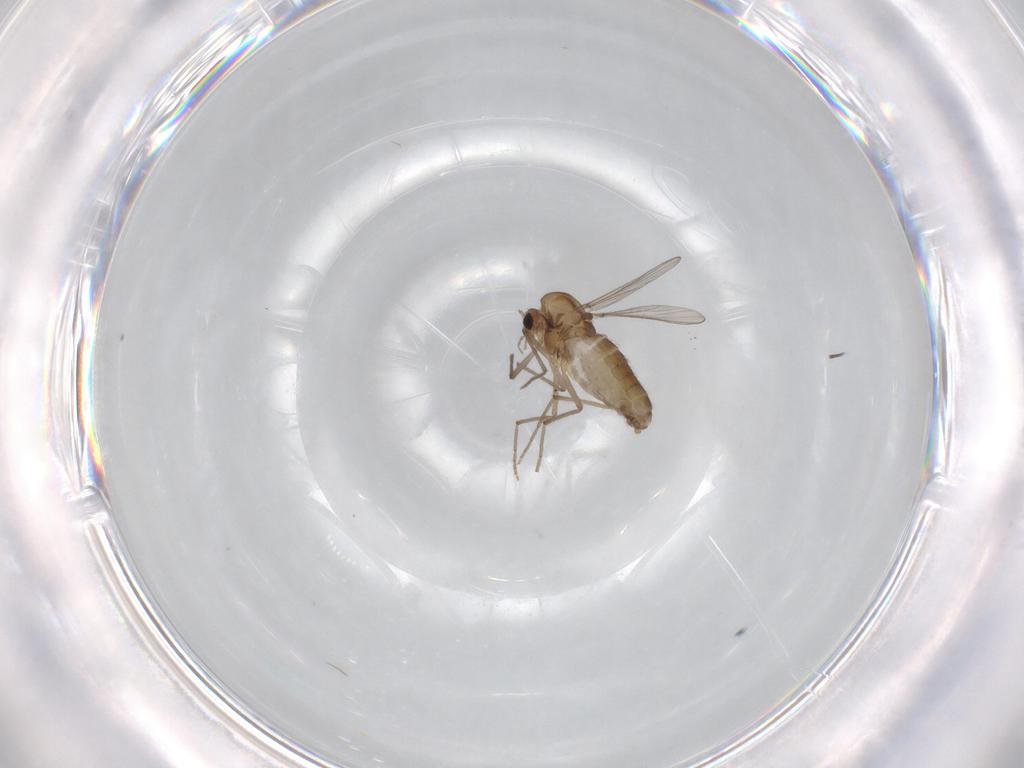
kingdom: Animalia
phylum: Arthropoda
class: Insecta
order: Diptera
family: Chironomidae
